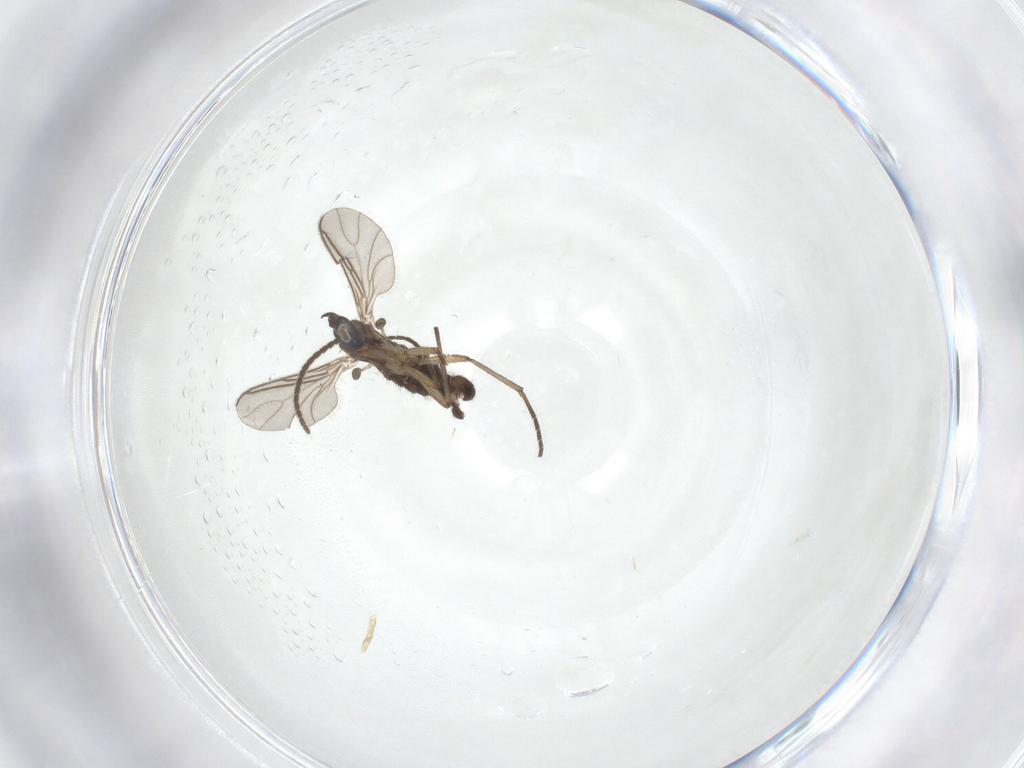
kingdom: Animalia
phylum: Arthropoda
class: Insecta
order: Diptera
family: Sciaridae
